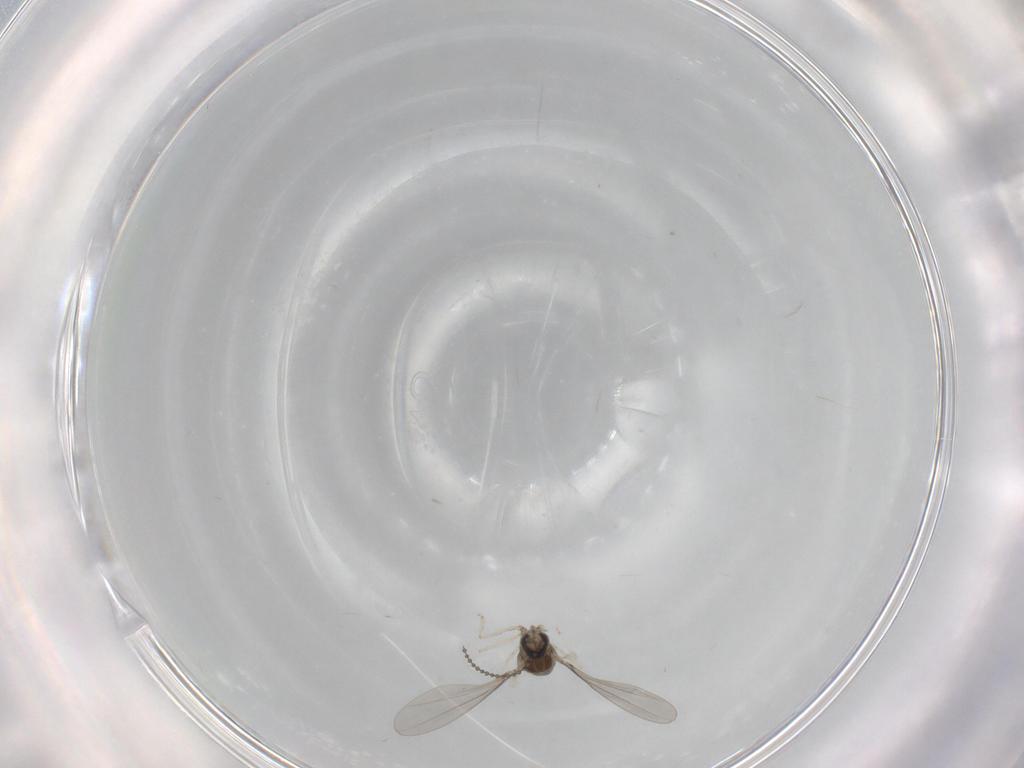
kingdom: Animalia
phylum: Arthropoda
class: Insecta
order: Diptera
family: Cecidomyiidae
